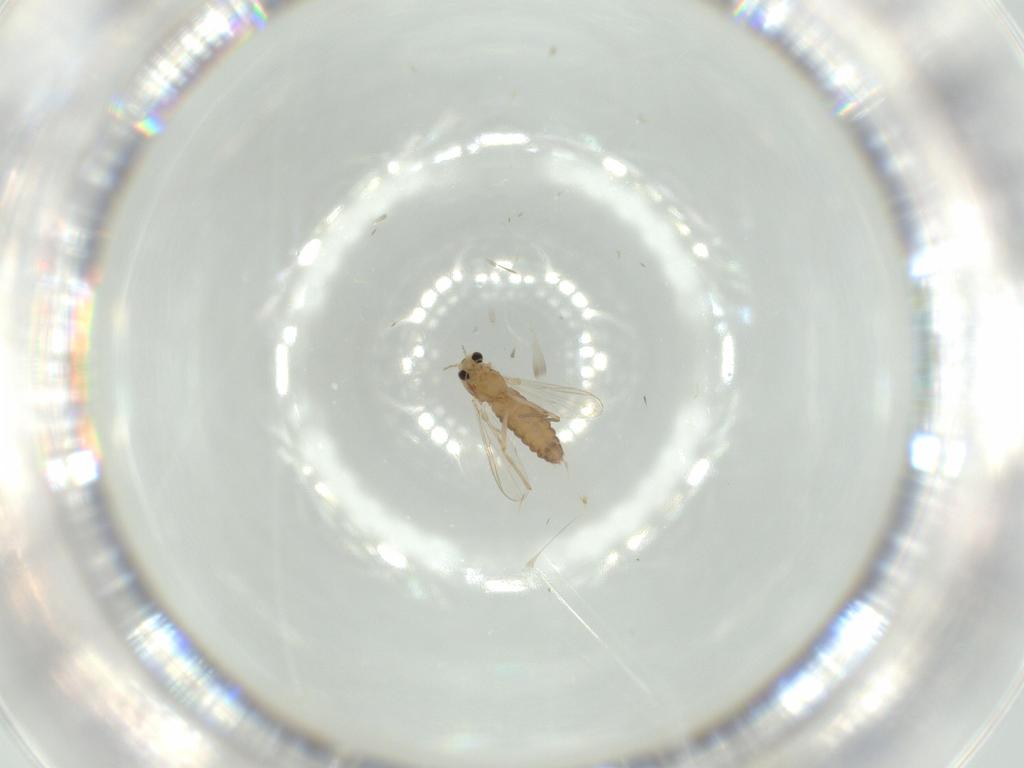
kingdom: Animalia
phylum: Arthropoda
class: Insecta
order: Diptera
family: Chironomidae
